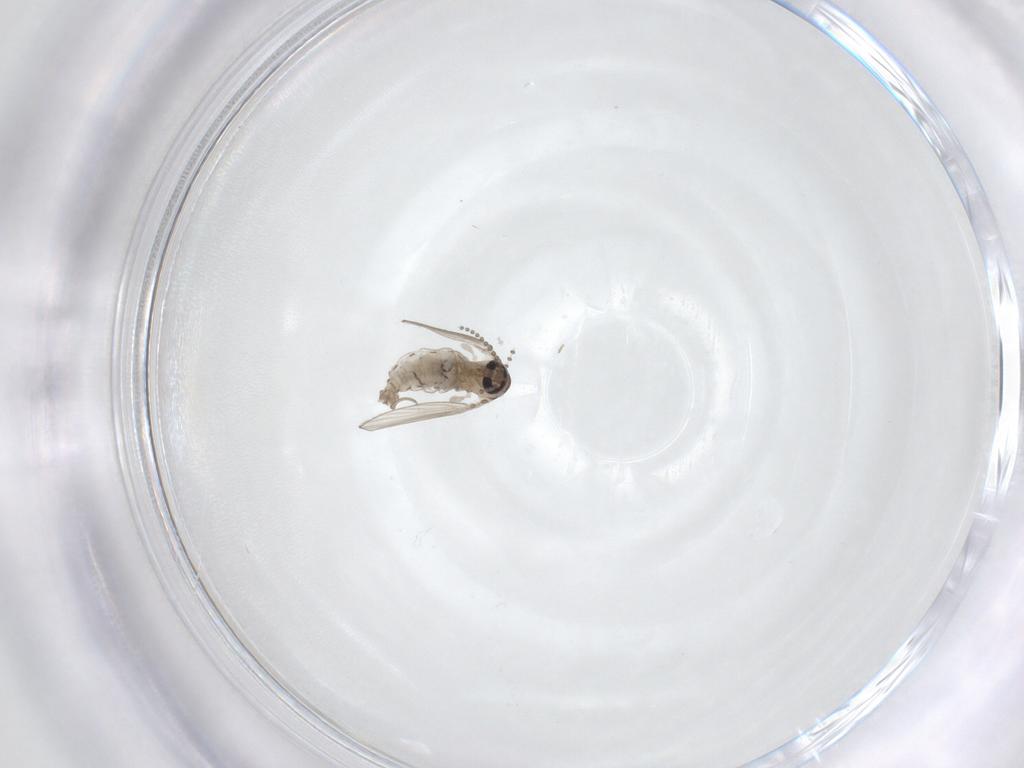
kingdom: Animalia
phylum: Arthropoda
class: Insecta
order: Diptera
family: Psychodidae
